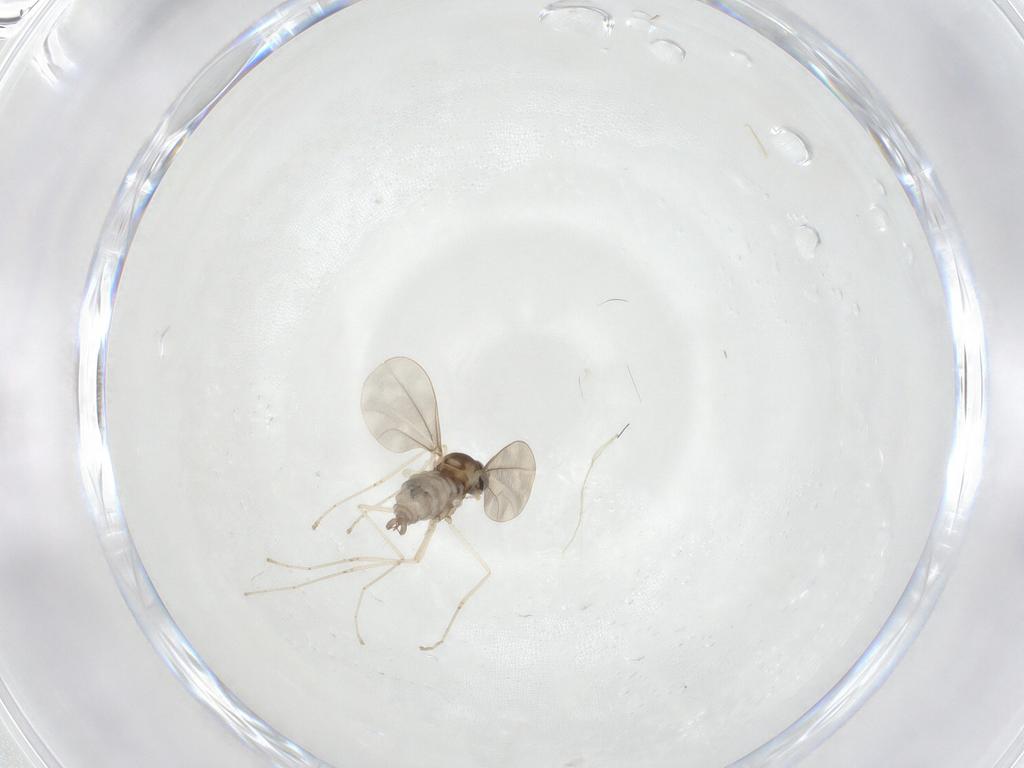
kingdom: Animalia
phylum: Arthropoda
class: Insecta
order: Diptera
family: Cecidomyiidae
